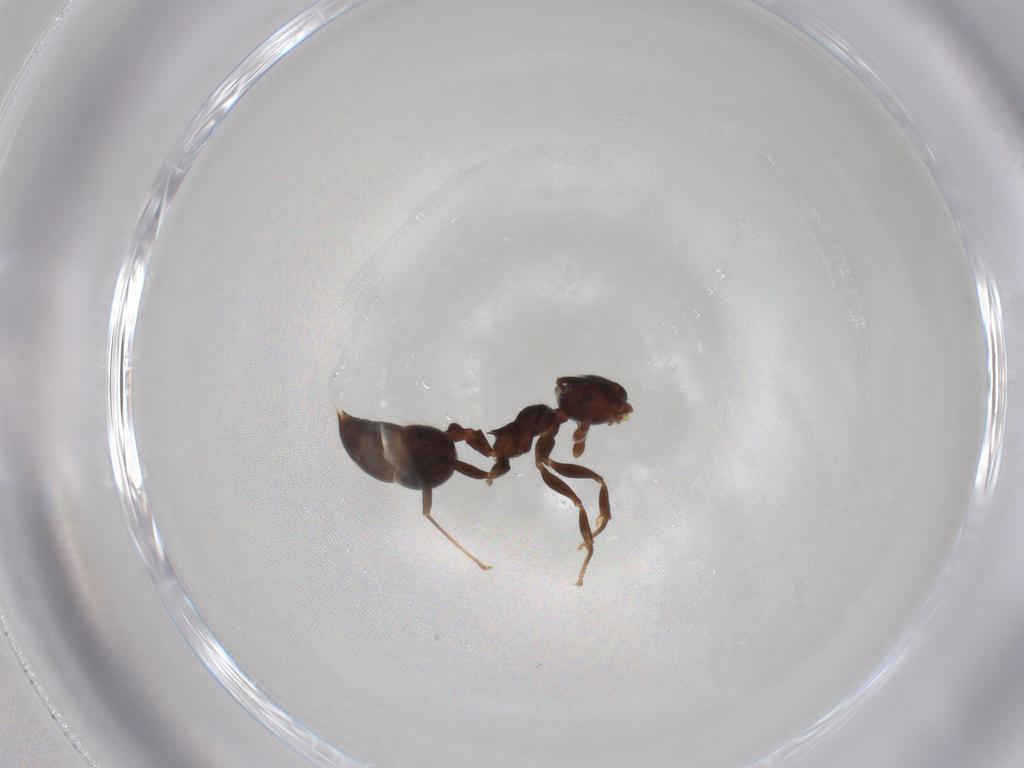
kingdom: Animalia
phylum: Arthropoda
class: Insecta
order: Hymenoptera
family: Formicidae
